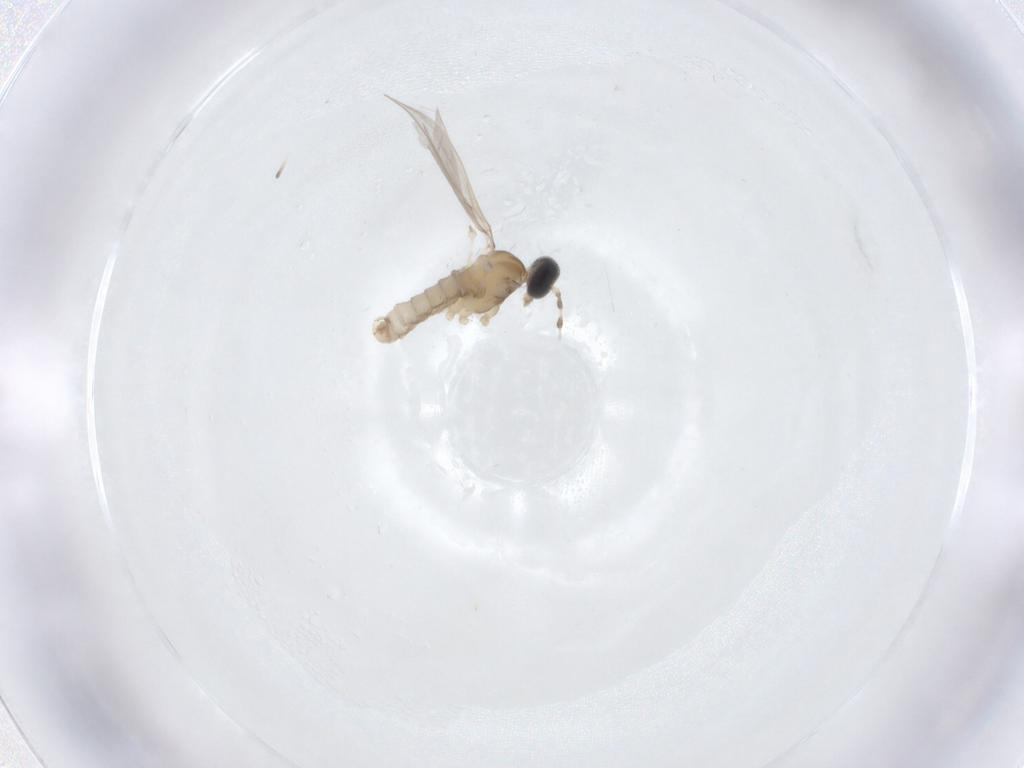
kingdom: Animalia
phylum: Arthropoda
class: Insecta
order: Diptera
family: Cecidomyiidae
